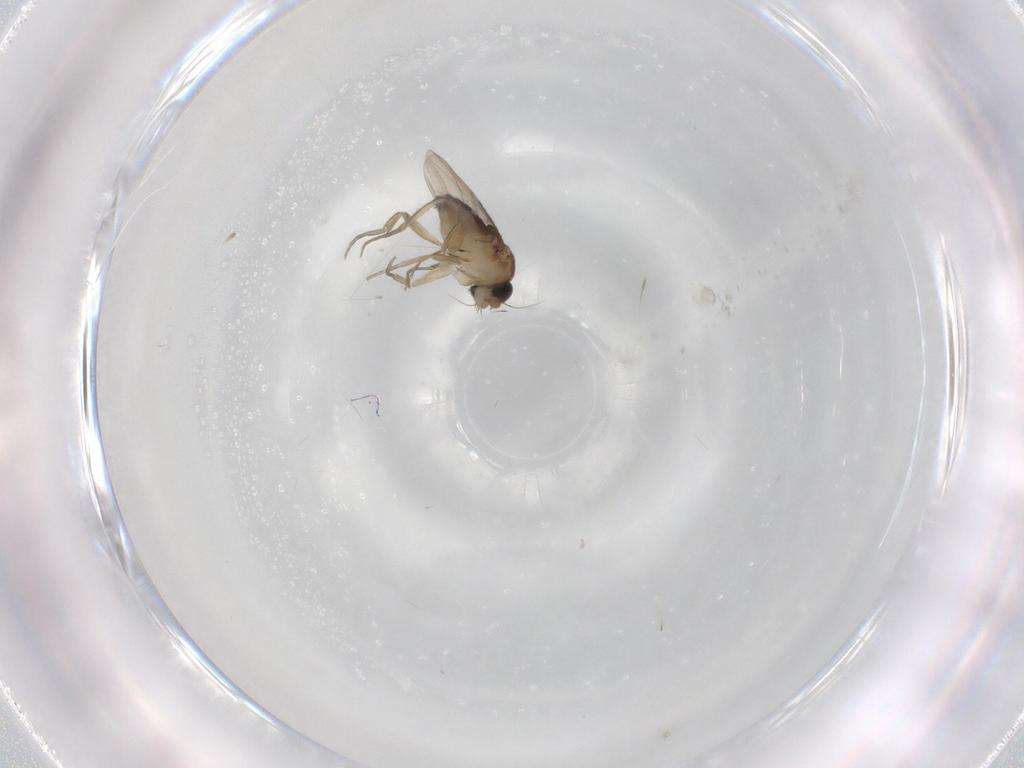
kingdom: Animalia
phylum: Arthropoda
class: Insecta
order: Diptera
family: Phoridae
